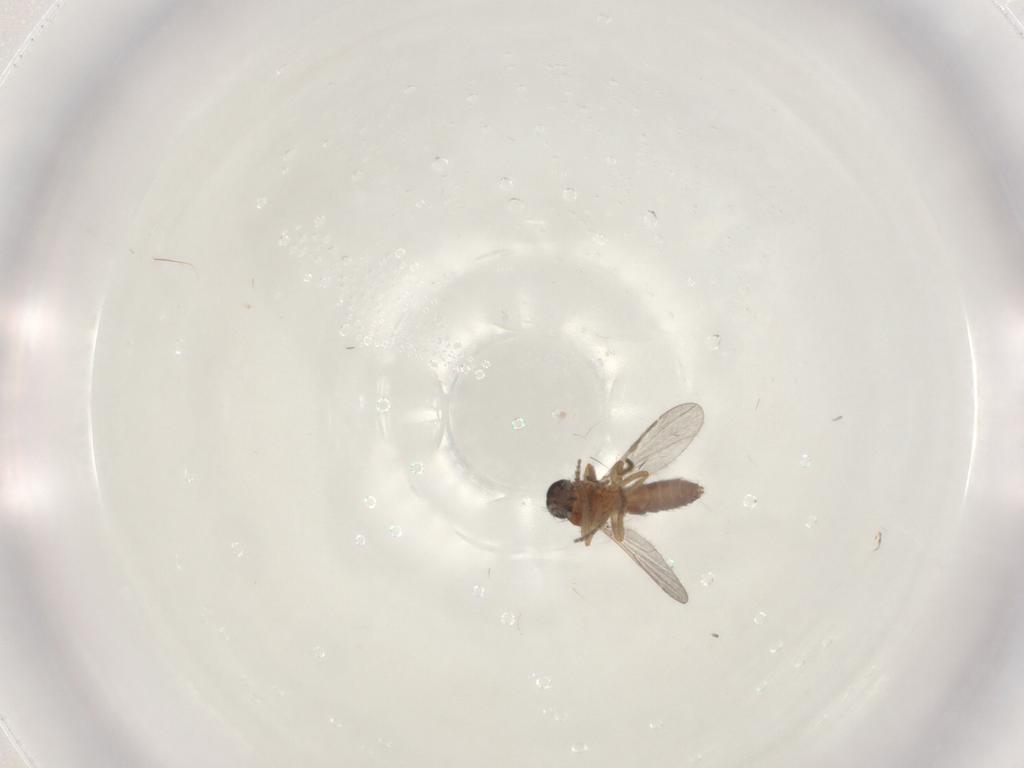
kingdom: Animalia
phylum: Arthropoda
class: Insecta
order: Diptera
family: Ceratopogonidae
